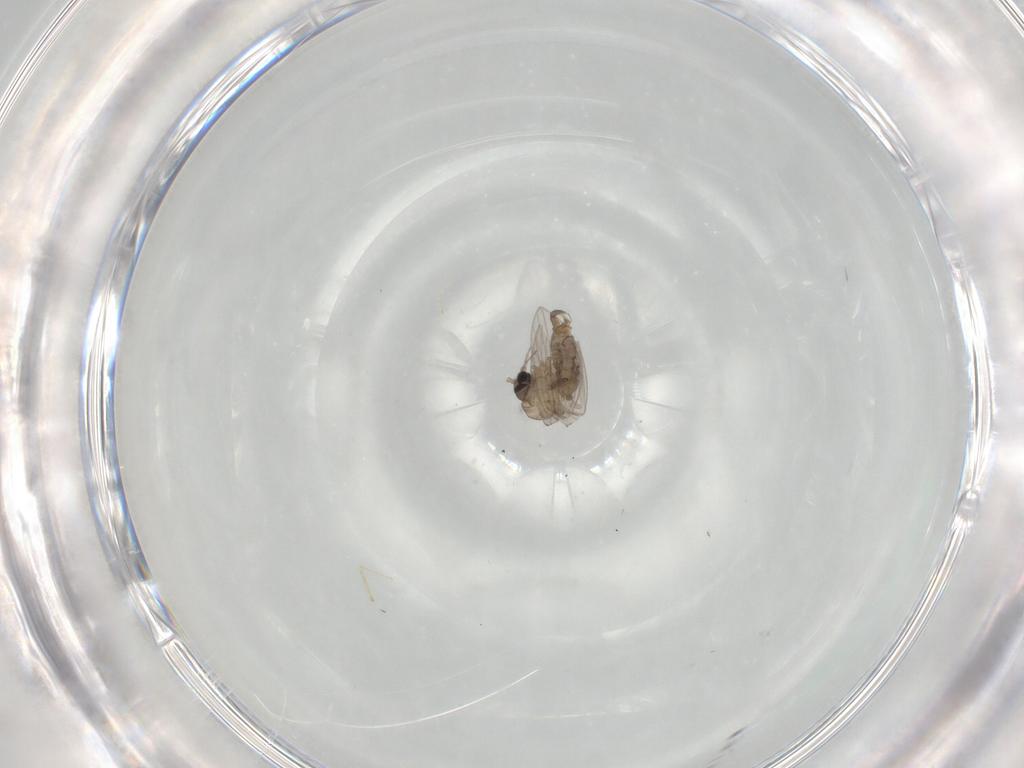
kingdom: Animalia
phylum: Arthropoda
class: Insecta
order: Diptera
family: Psychodidae
